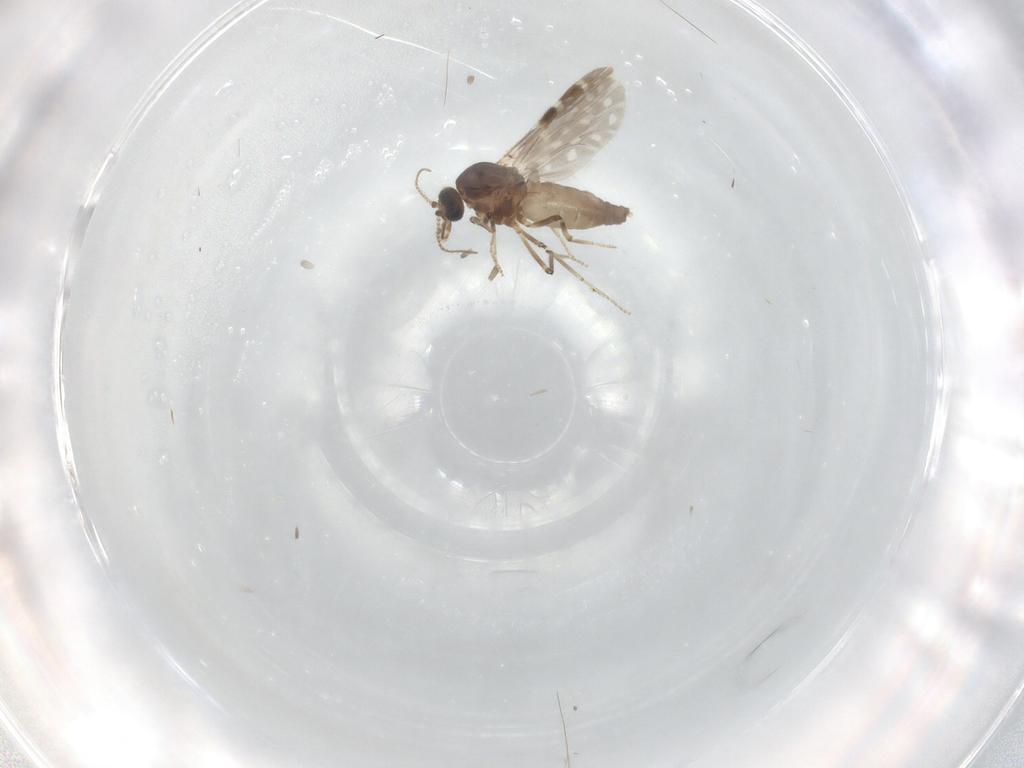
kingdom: Animalia
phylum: Arthropoda
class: Insecta
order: Diptera
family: Ceratopogonidae
